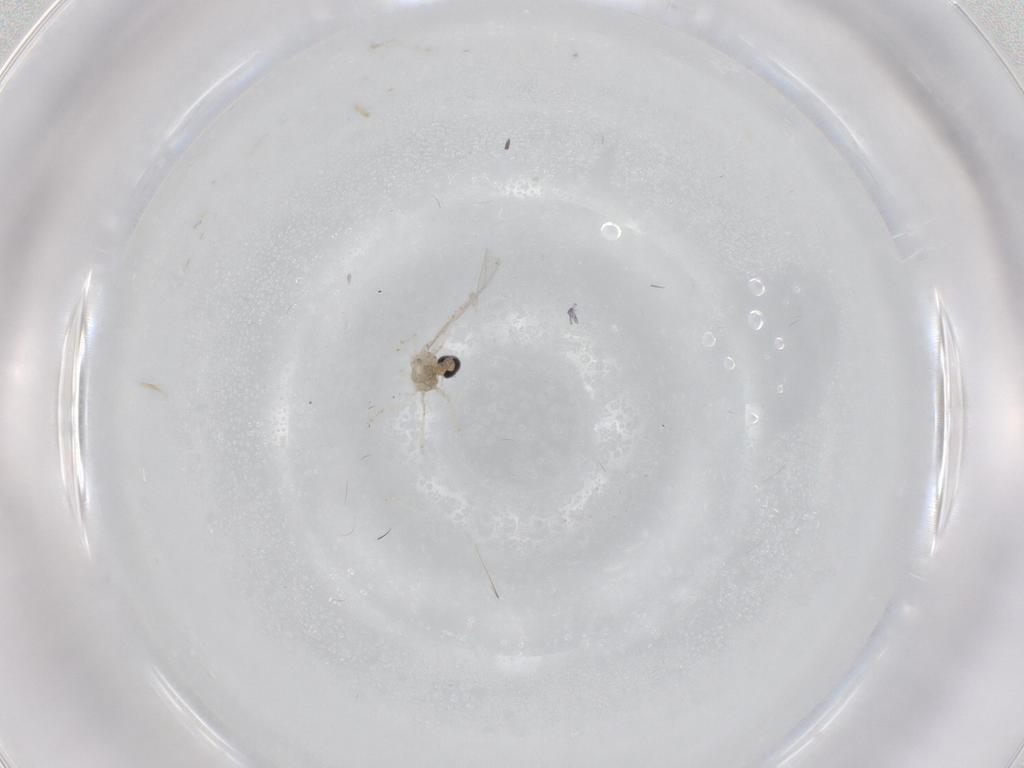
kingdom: Animalia
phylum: Arthropoda
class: Insecta
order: Diptera
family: Cecidomyiidae
